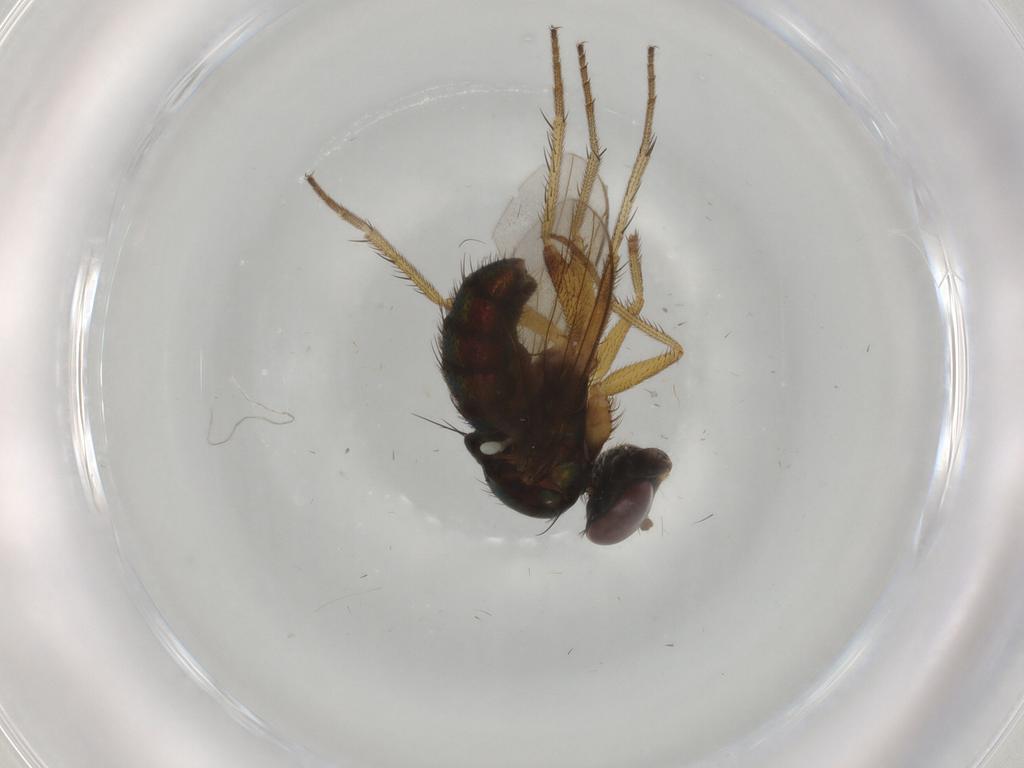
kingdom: Animalia
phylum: Arthropoda
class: Insecta
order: Diptera
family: Dolichopodidae
